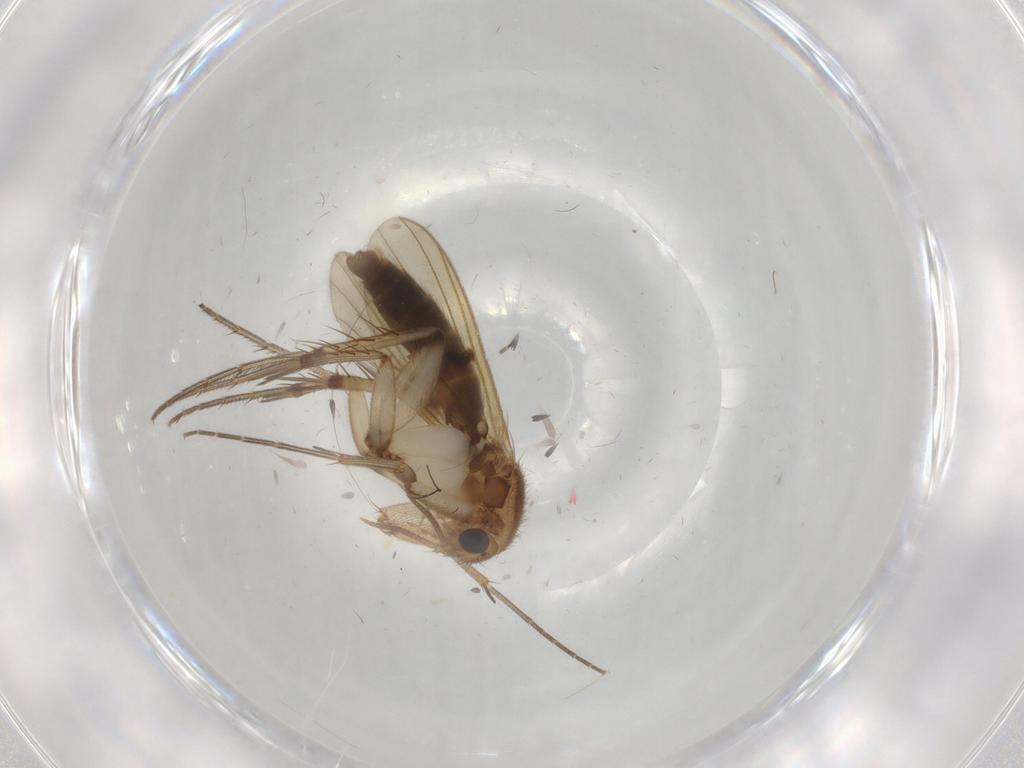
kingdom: Animalia
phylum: Arthropoda
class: Insecta
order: Diptera
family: Mycetophilidae
